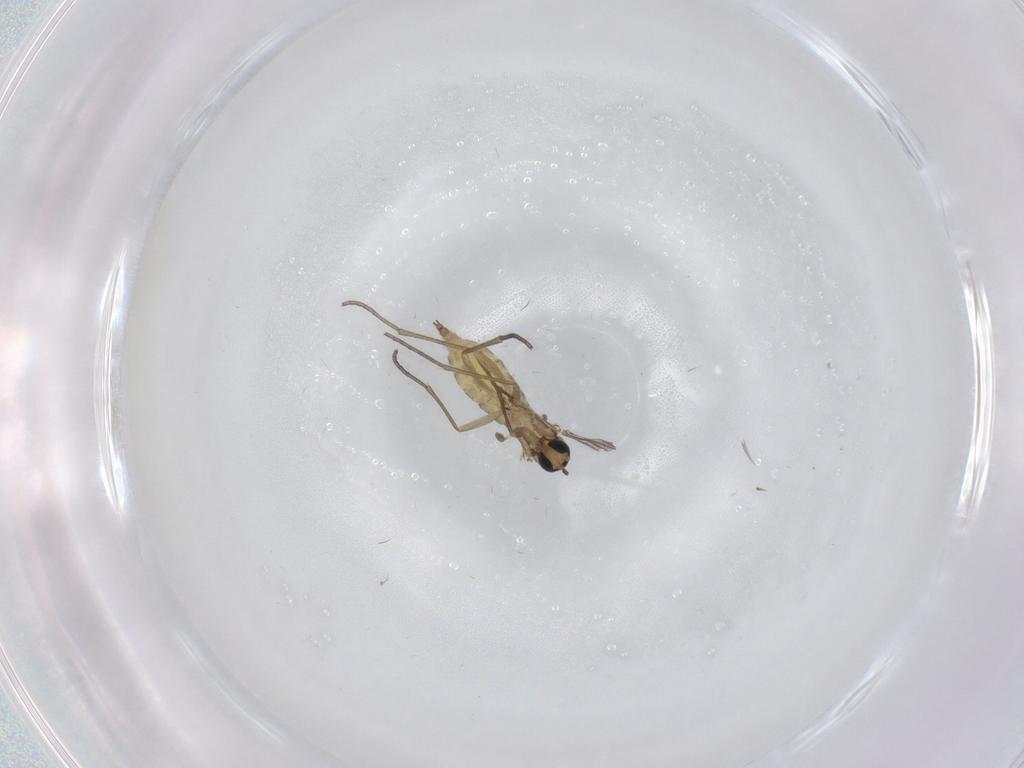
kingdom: Animalia
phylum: Arthropoda
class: Insecta
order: Diptera
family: Sciaridae
